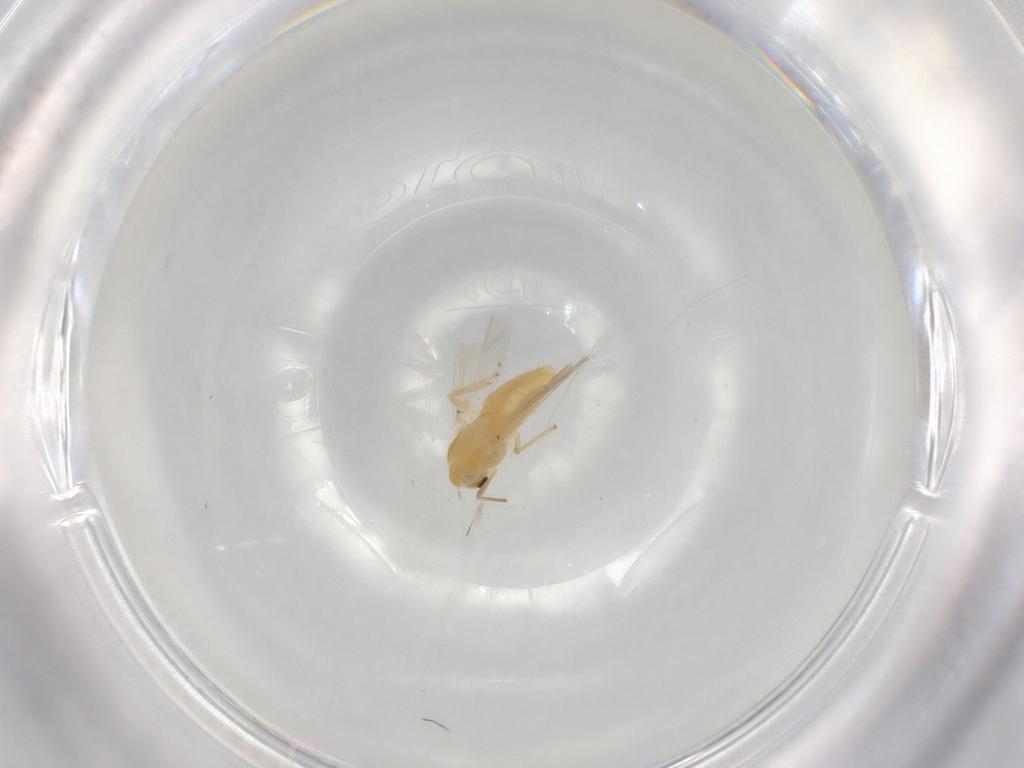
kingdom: Animalia
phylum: Arthropoda
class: Insecta
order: Diptera
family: Chironomidae
